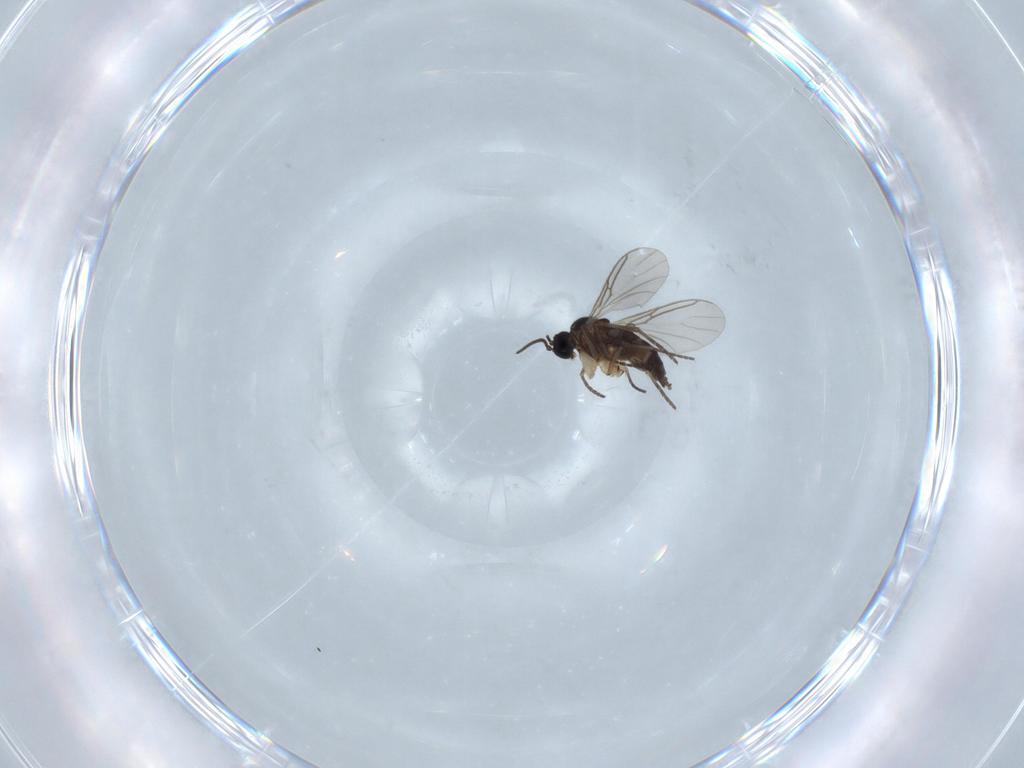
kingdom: Animalia
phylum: Arthropoda
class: Insecta
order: Diptera
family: Sciaridae
